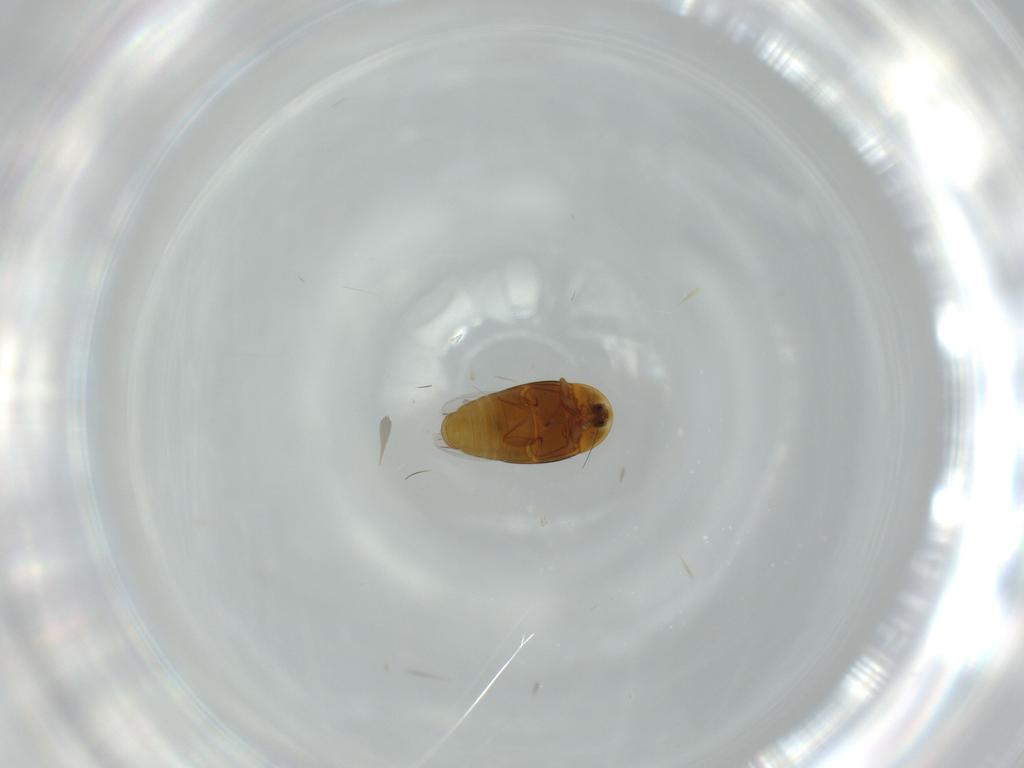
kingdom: Animalia
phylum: Arthropoda
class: Insecta
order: Coleoptera
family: Corylophidae
